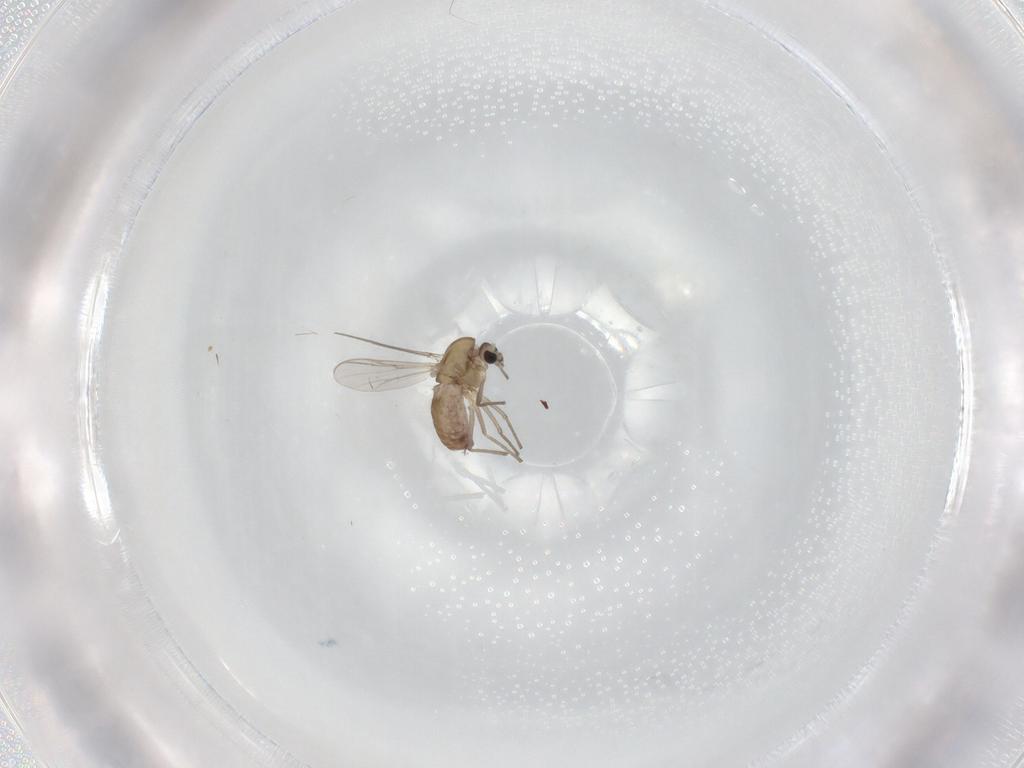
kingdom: Animalia
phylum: Arthropoda
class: Insecta
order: Diptera
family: Chironomidae
